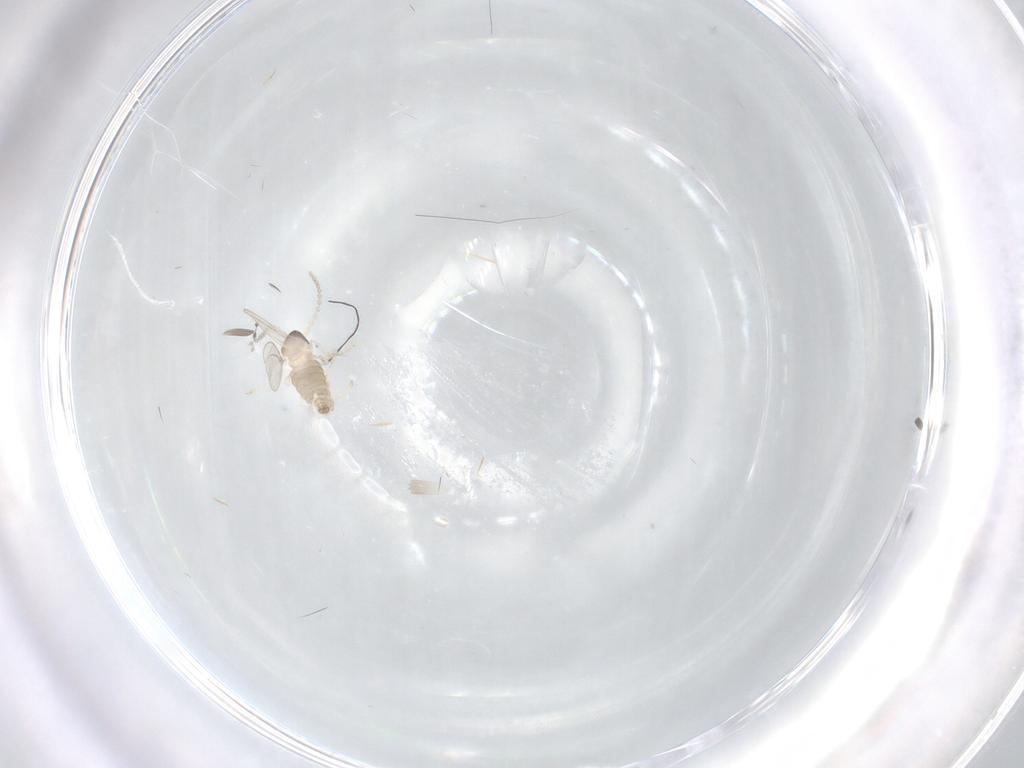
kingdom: Animalia
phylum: Arthropoda
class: Insecta
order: Diptera
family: Cecidomyiidae
